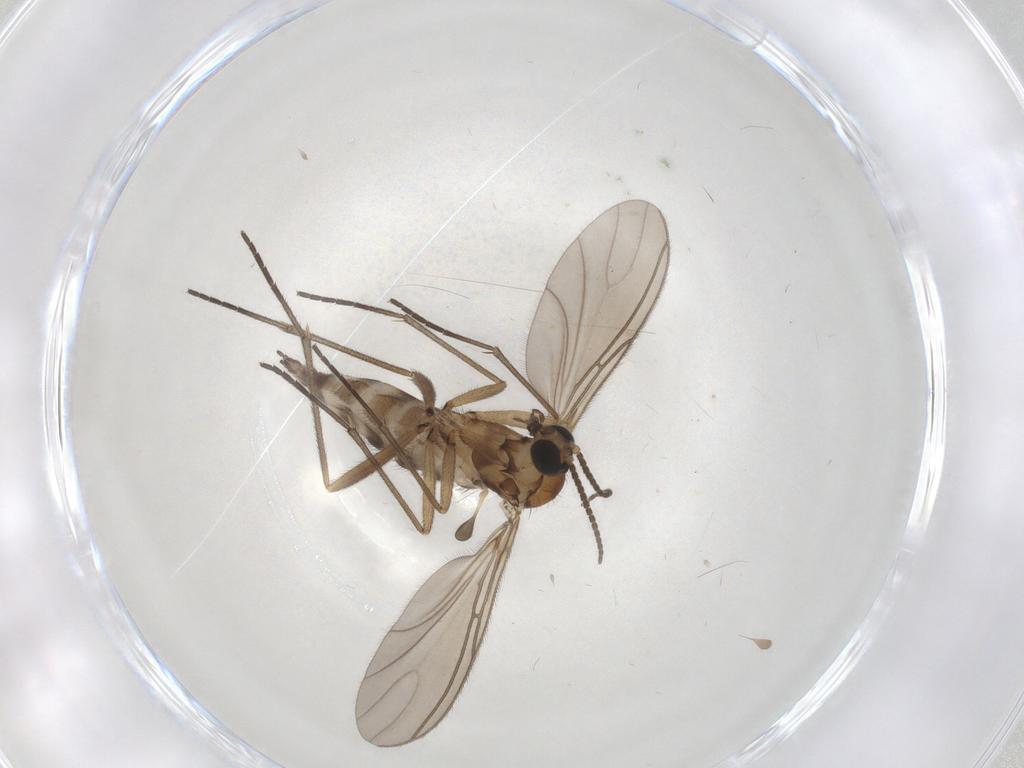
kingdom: Animalia
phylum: Arthropoda
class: Insecta
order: Diptera
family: Sciaridae
